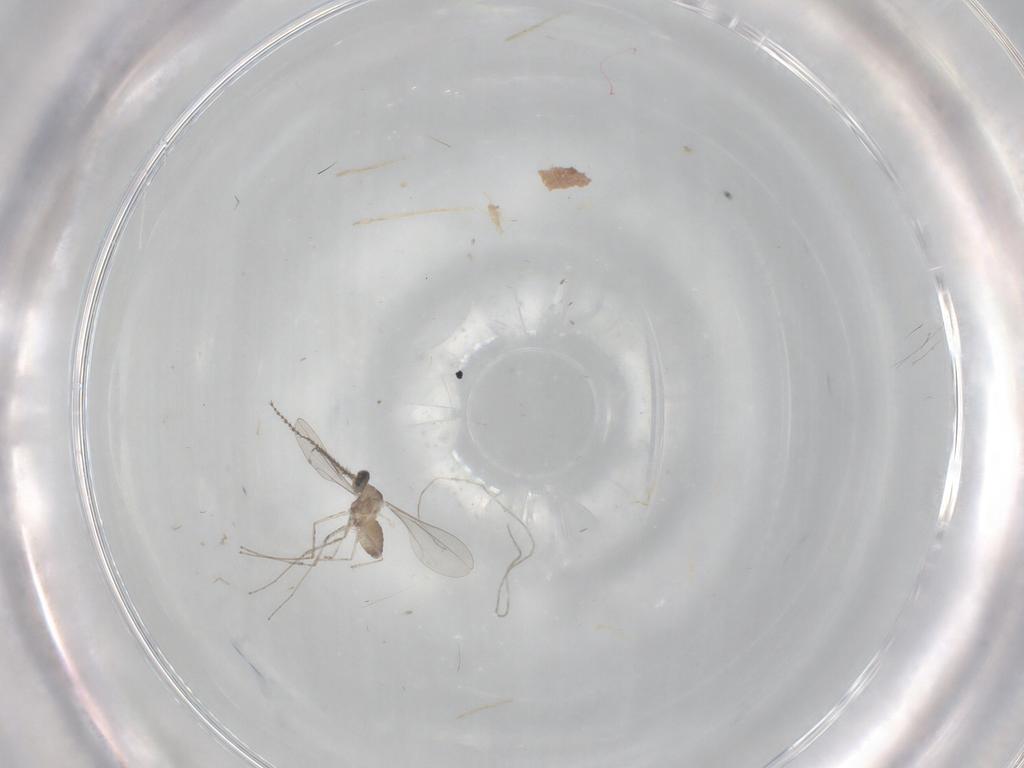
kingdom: Animalia
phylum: Arthropoda
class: Insecta
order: Diptera
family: Cecidomyiidae
